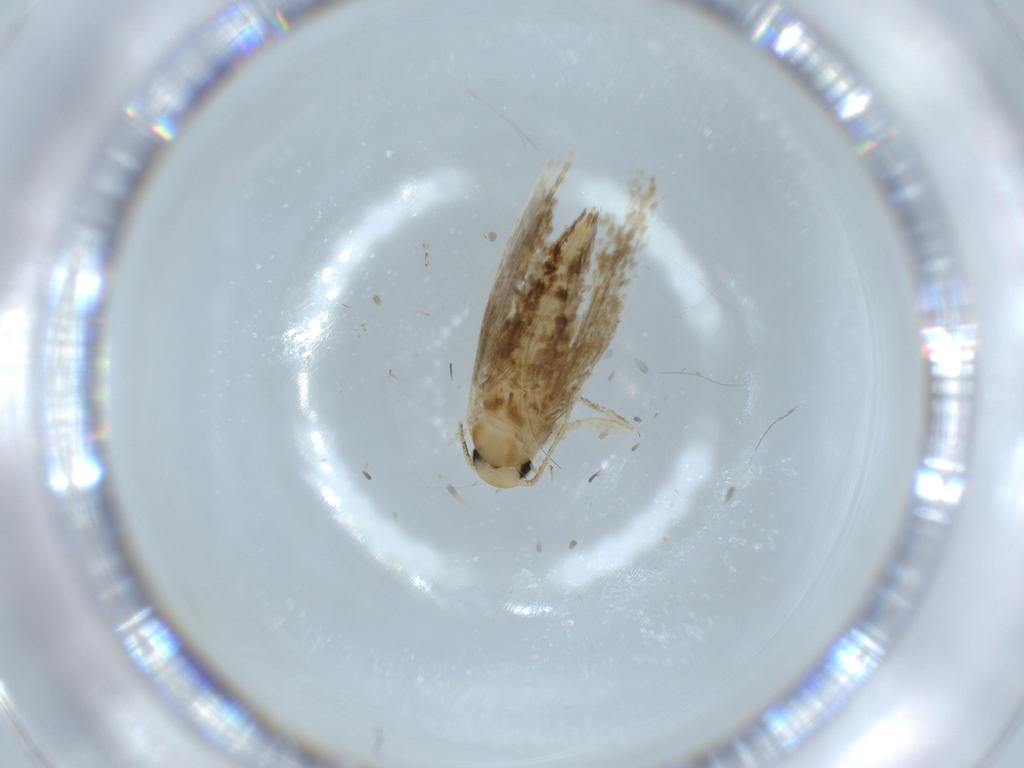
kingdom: Animalia
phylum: Arthropoda
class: Insecta
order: Lepidoptera
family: Tineidae
